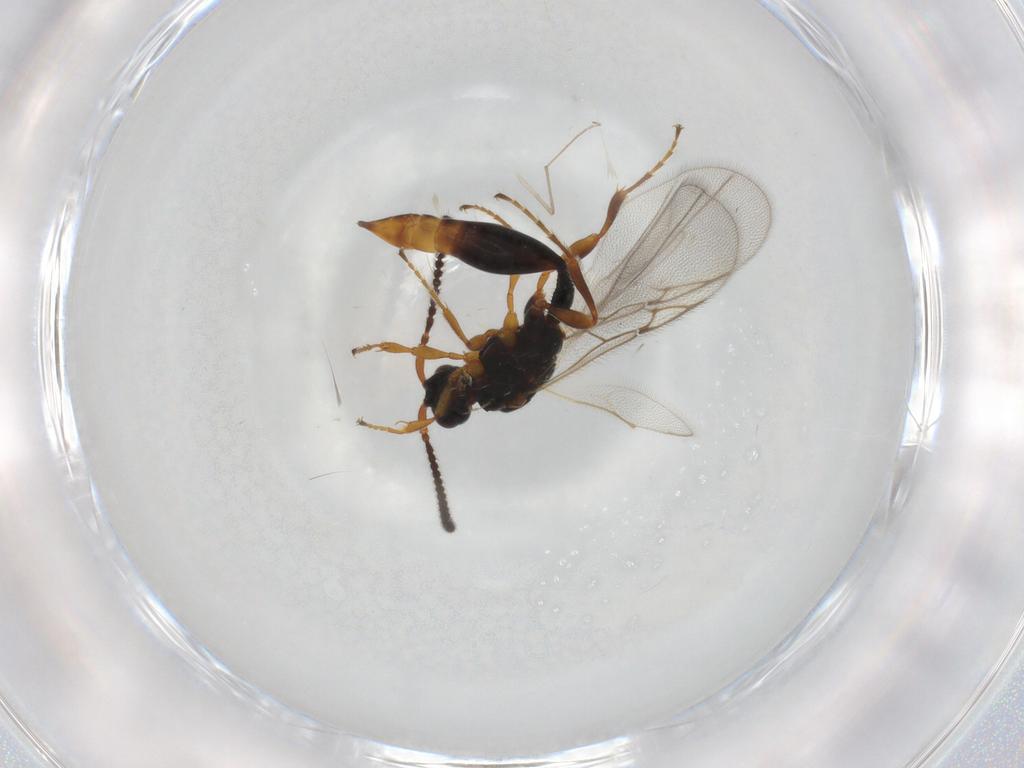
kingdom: Animalia
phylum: Arthropoda
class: Insecta
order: Hymenoptera
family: Diapriidae
